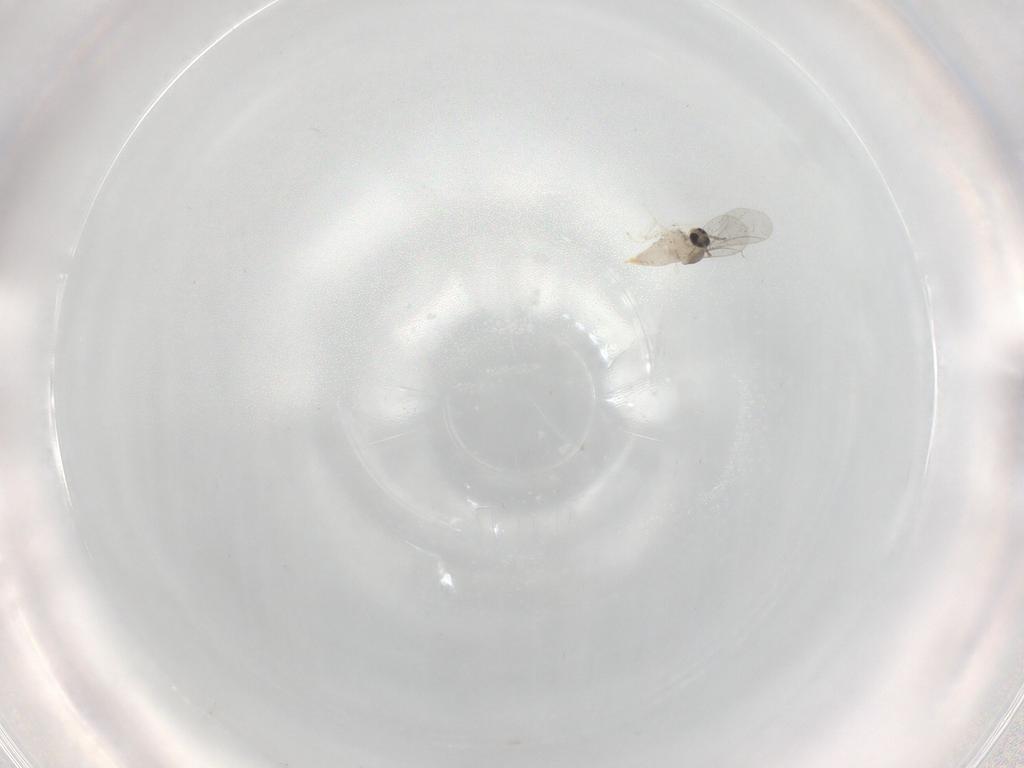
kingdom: Animalia
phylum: Arthropoda
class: Insecta
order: Diptera
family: Cecidomyiidae
